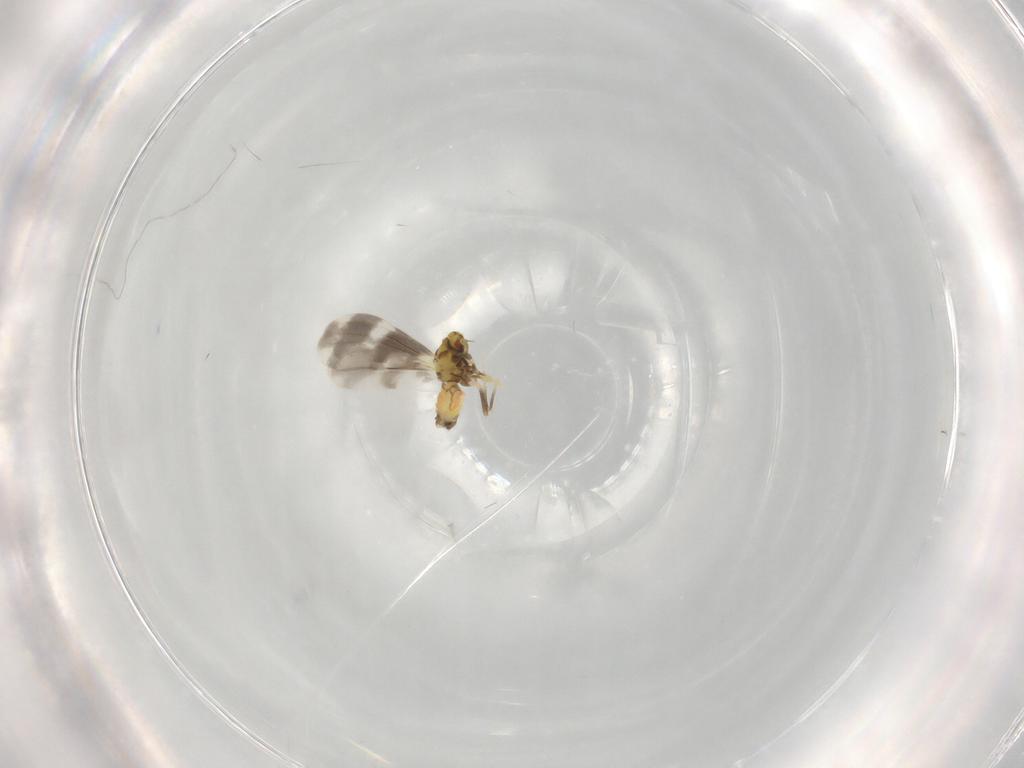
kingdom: Animalia
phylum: Arthropoda
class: Insecta
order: Hemiptera
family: Aleyrodidae
